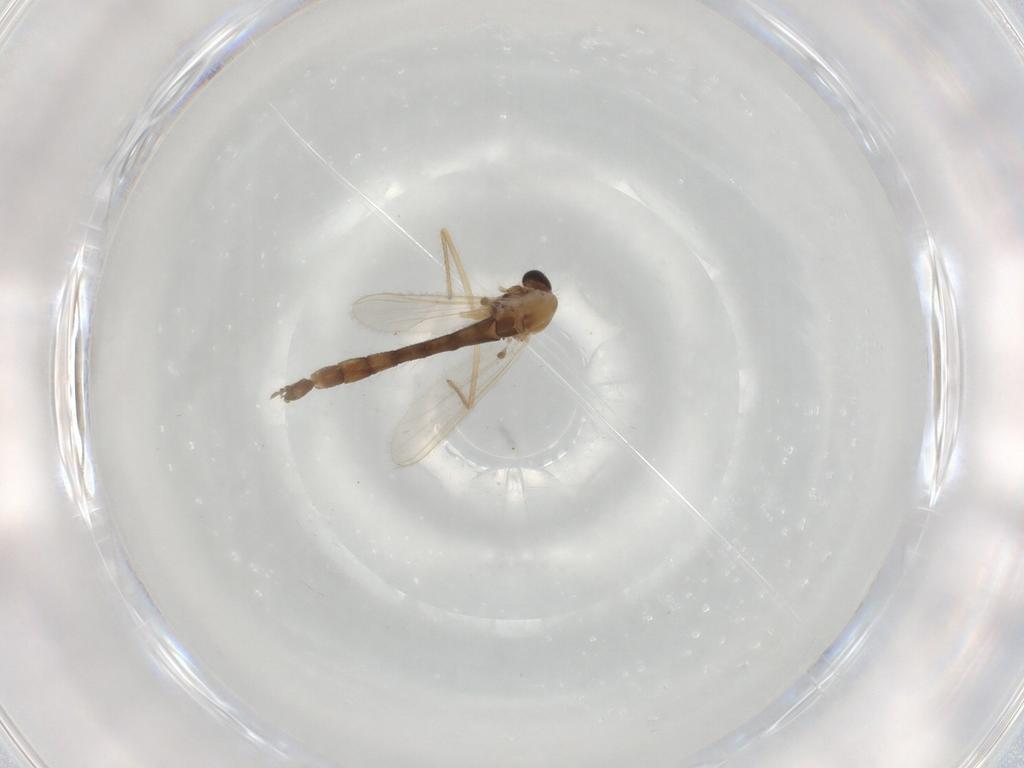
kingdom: Animalia
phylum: Arthropoda
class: Insecta
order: Diptera
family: Chironomidae
